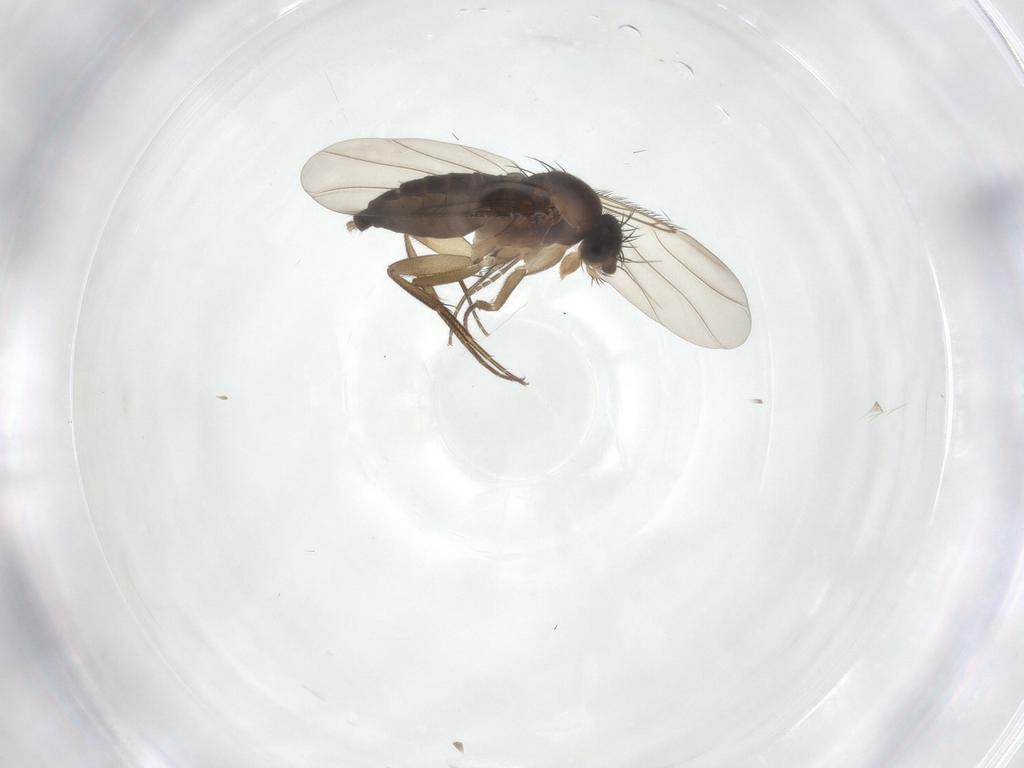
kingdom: Animalia
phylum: Arthropoda
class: Insecta
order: Diptera
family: Phoridae
